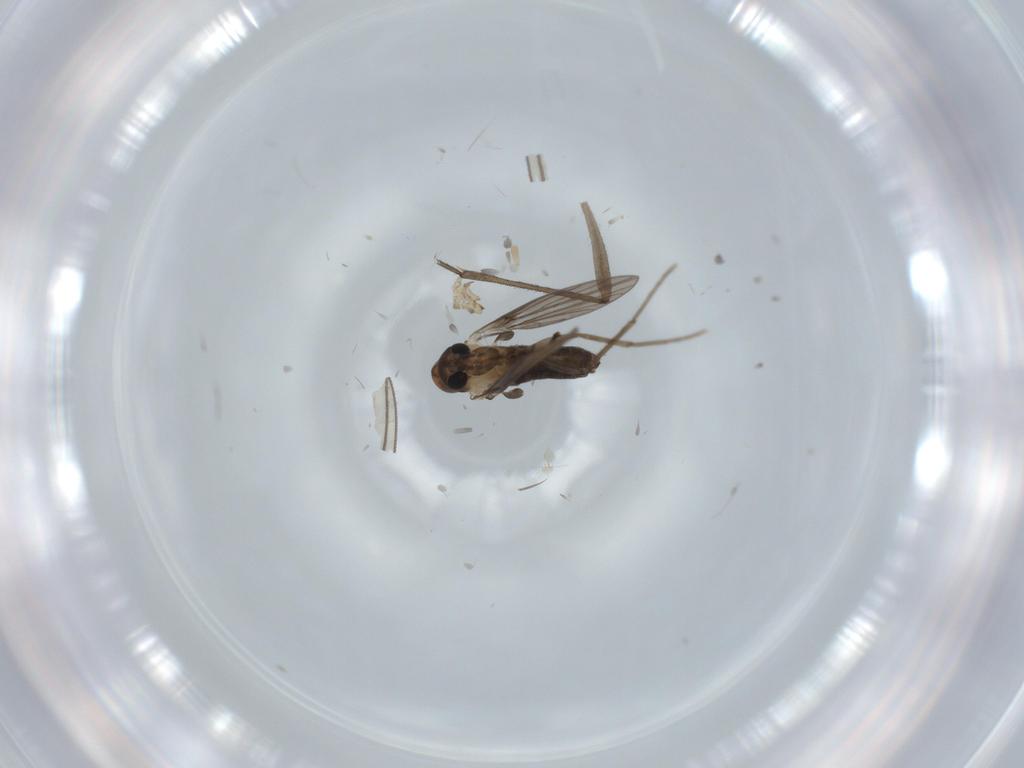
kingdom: Animalia
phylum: Arthropoda
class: Insecta
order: Diptera
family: Psychodidae
